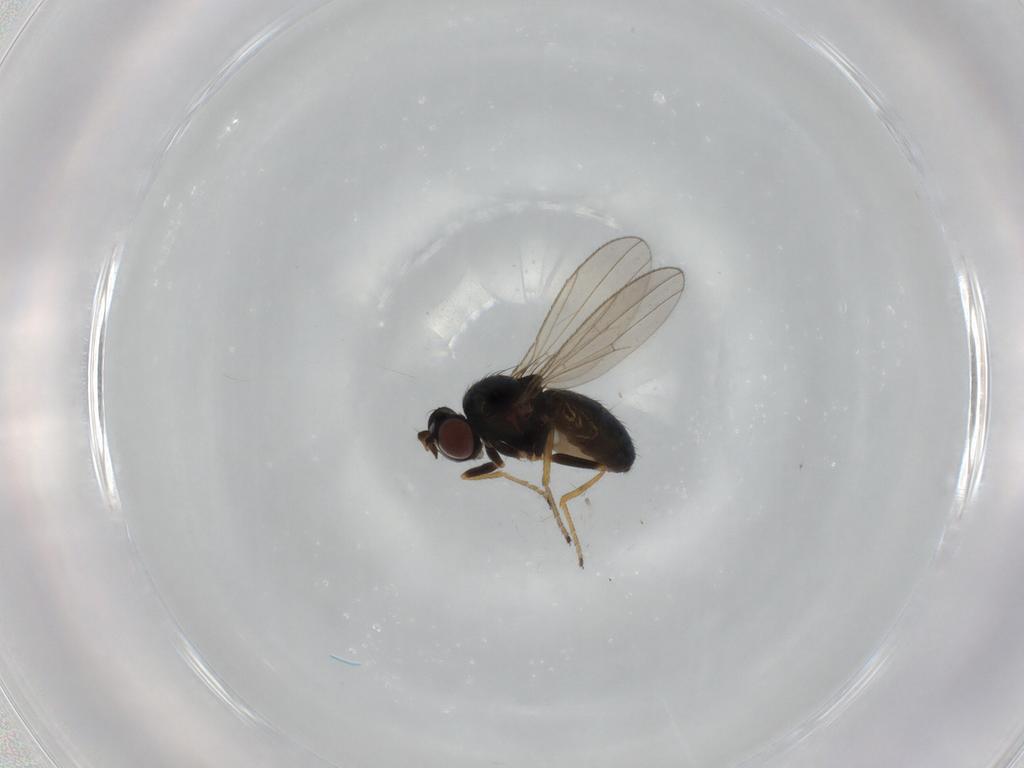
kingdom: Animalia
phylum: Arthropoda
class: Insecta
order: Diptera
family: Ephydridae
